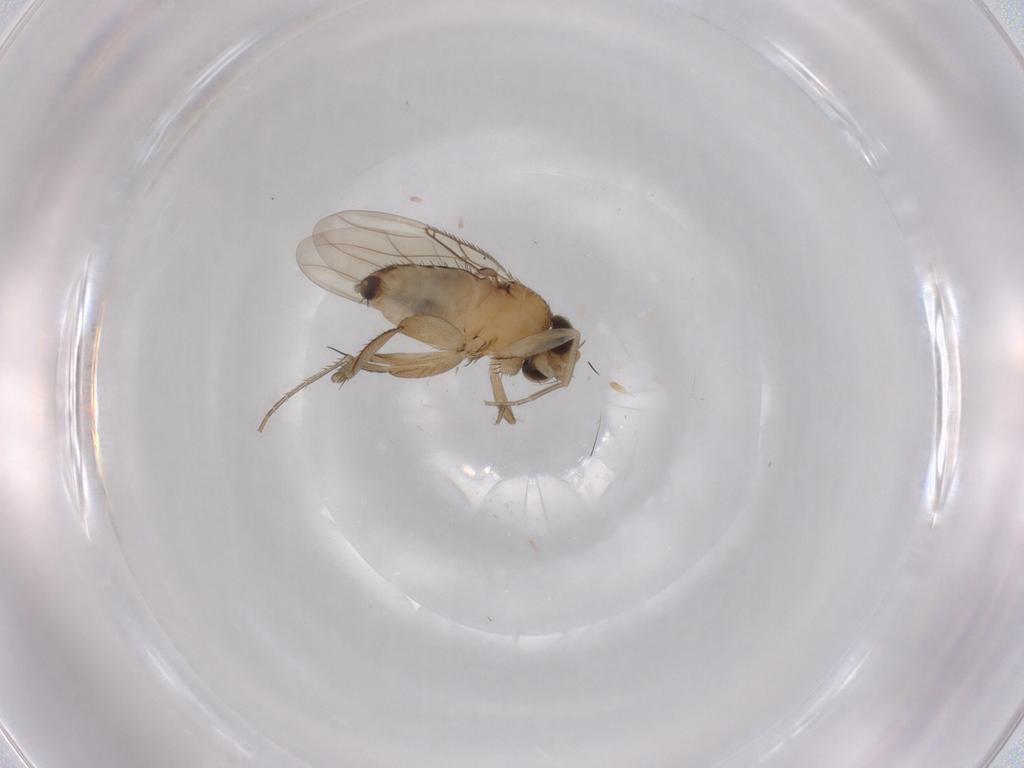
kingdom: Animalia
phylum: Arthropoda
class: Insecta
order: Diptera
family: Phoridae
